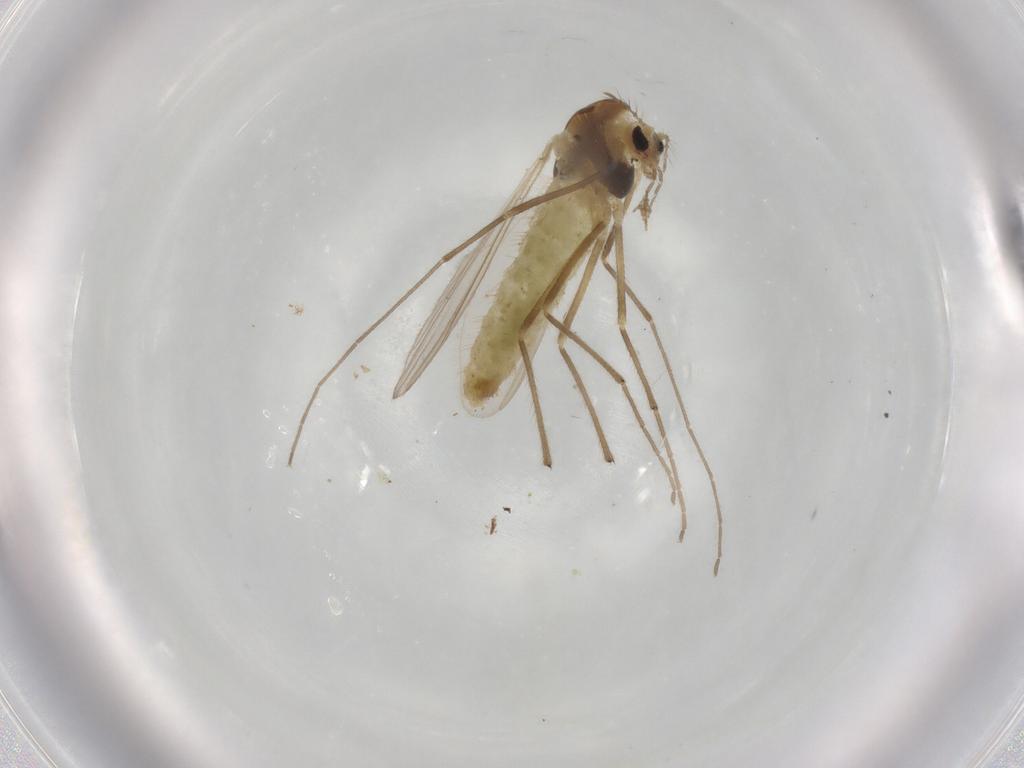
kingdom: Animalia
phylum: Arthropoda
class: Insecta
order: Diptera
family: Chironomidae
